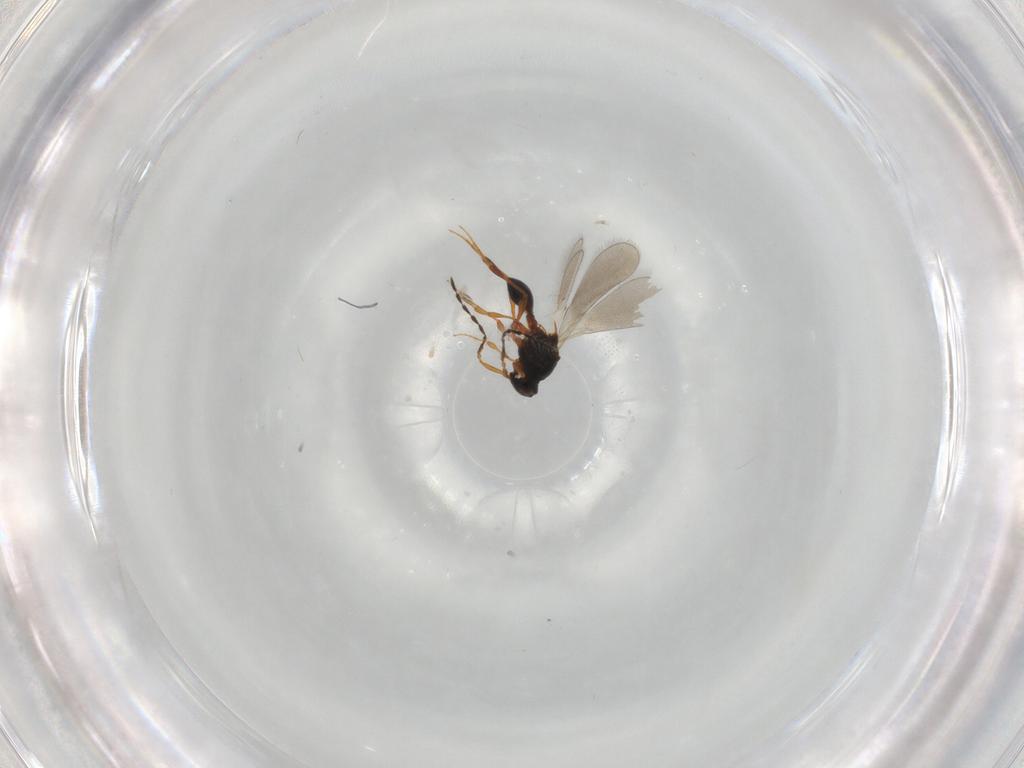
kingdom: Animalia
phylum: Arthropoda
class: Insecta
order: Hymenoptera
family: Platygastridae
